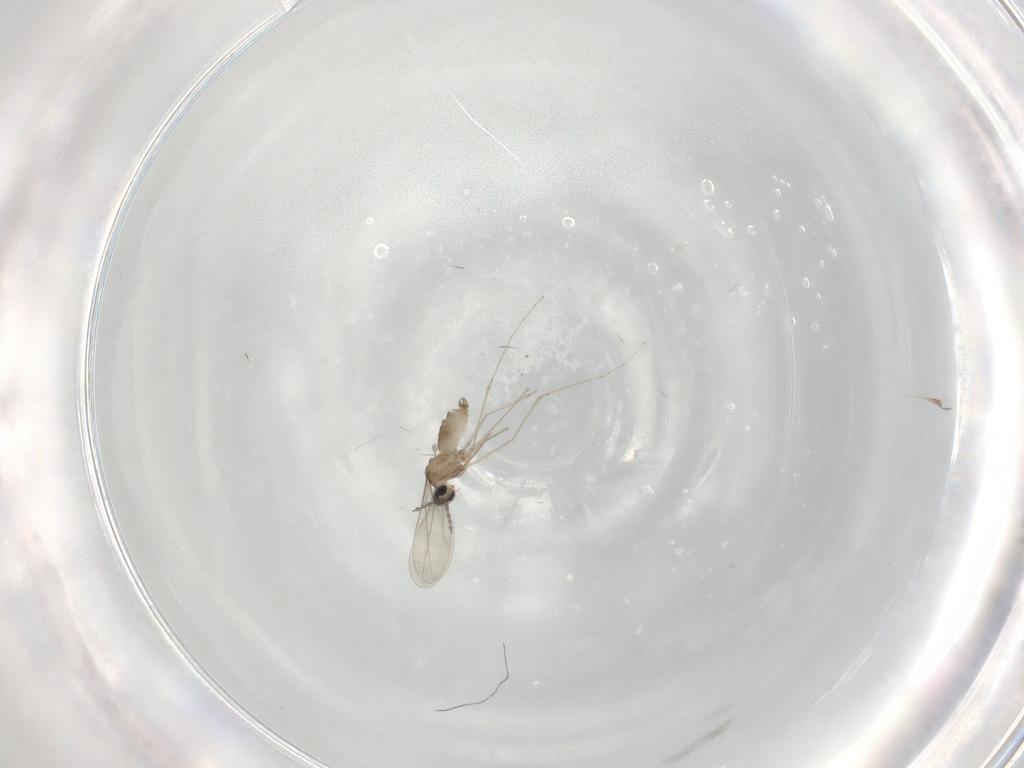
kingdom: Animalia
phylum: Arthropoda
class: Insecta
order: Diptera
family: Cecidomyiidae
